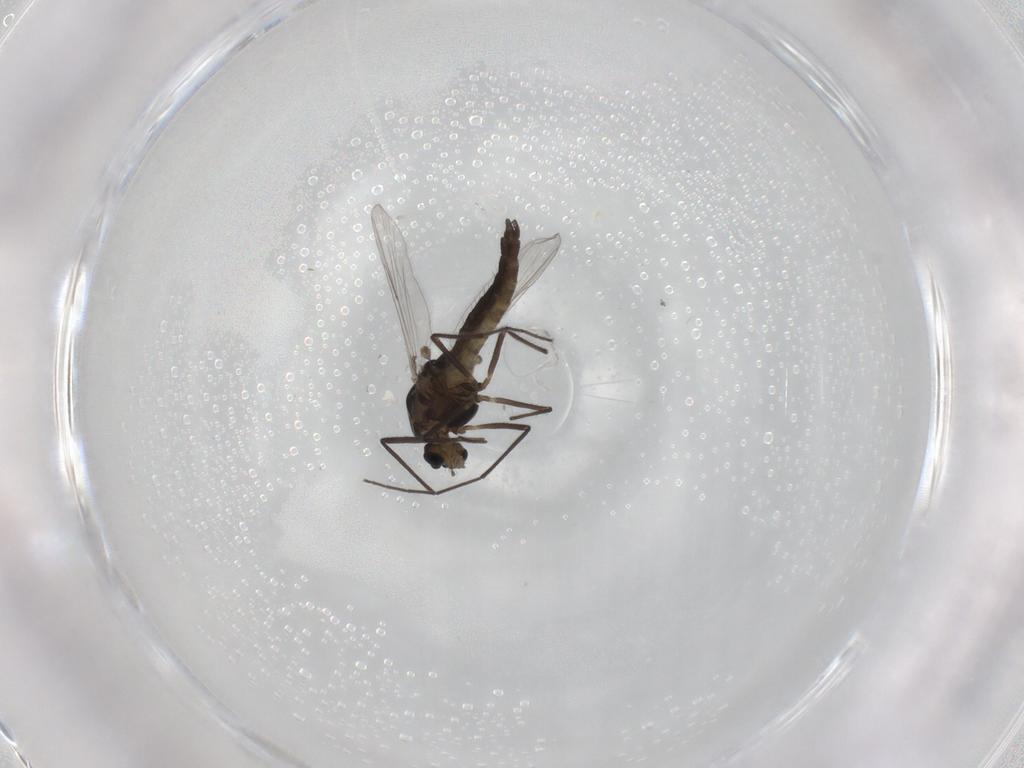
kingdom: Animalia
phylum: Arthropoda
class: Insecta
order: Diptera
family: Chironomidae
